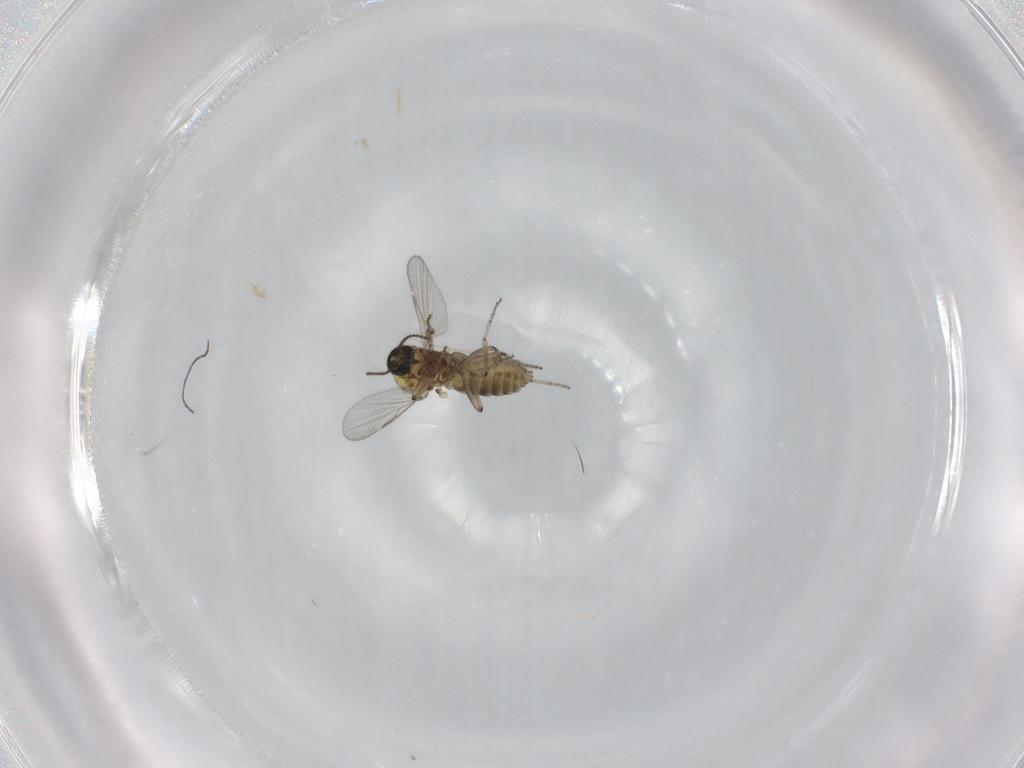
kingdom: Animalia
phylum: Arthropoda
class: Insecta
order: Diptera
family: Ceratopogonidae
